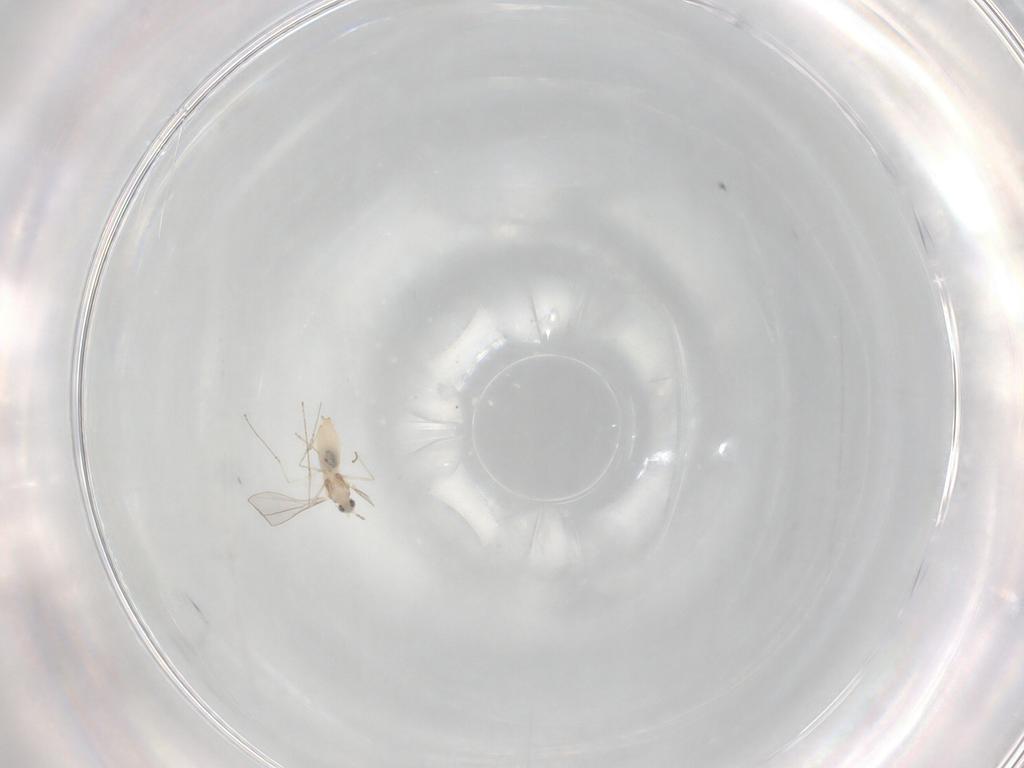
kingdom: Animalia
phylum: Arthropoda
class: Insecta
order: Diptera
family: Cecidomyiidae
